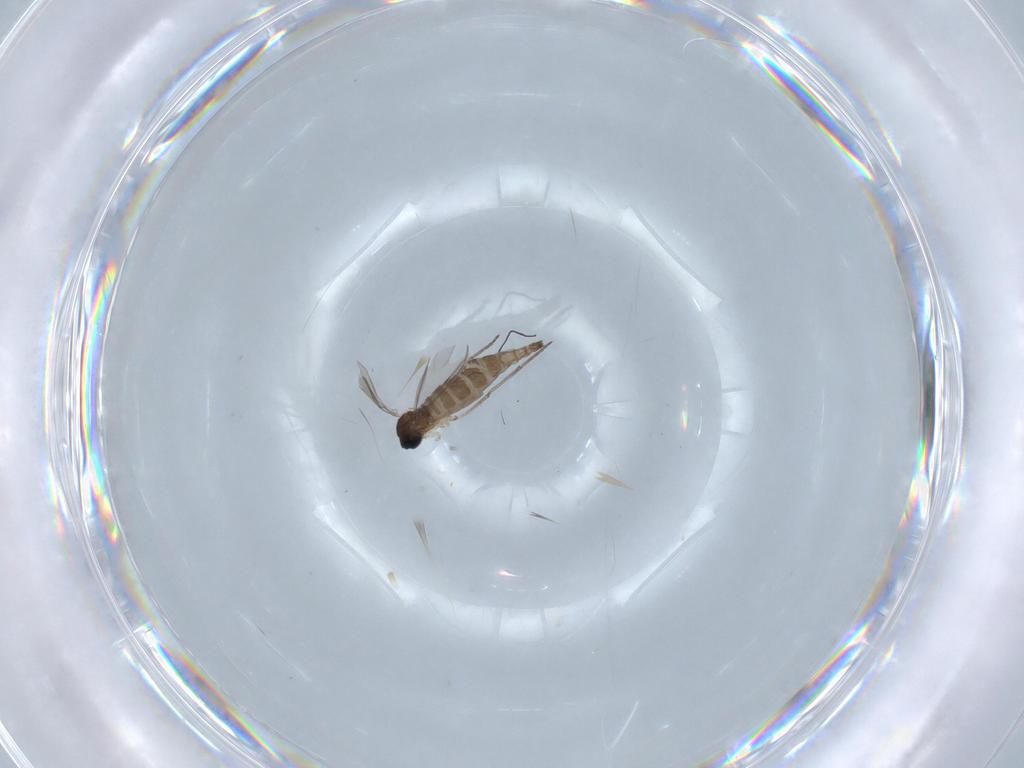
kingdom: Animalia
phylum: Arthropoda
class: Insecta
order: Diptera
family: Sciaridae
